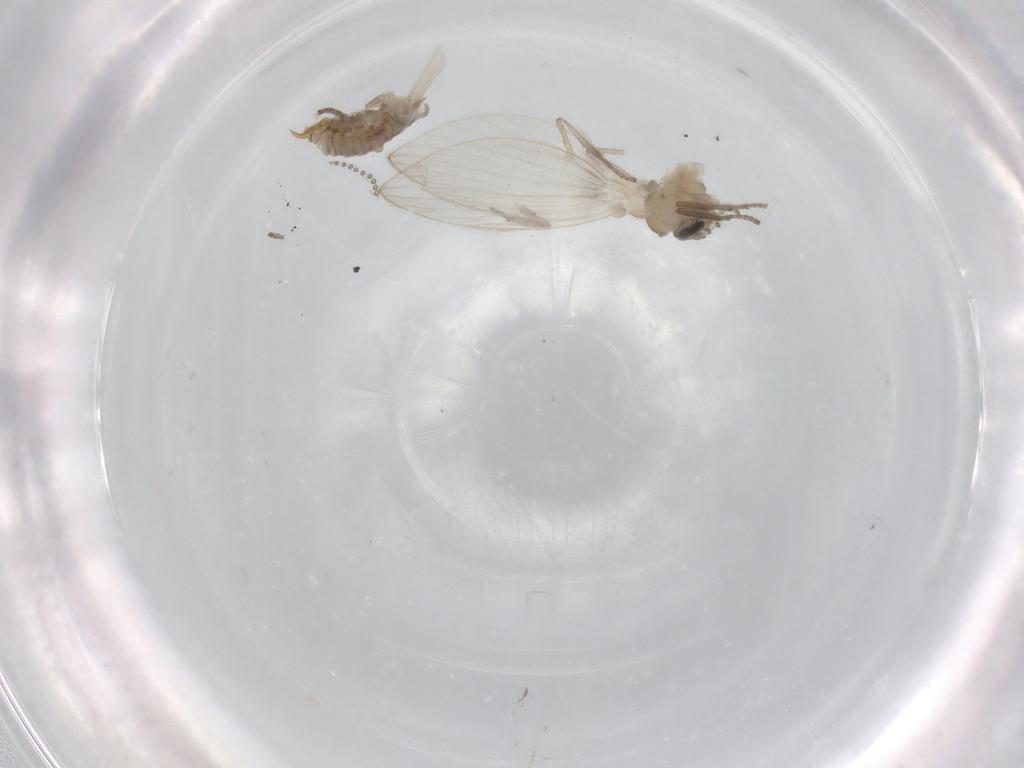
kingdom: Animalia
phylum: Arthropoda
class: Insecta
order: Diptera
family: Psychodidae
